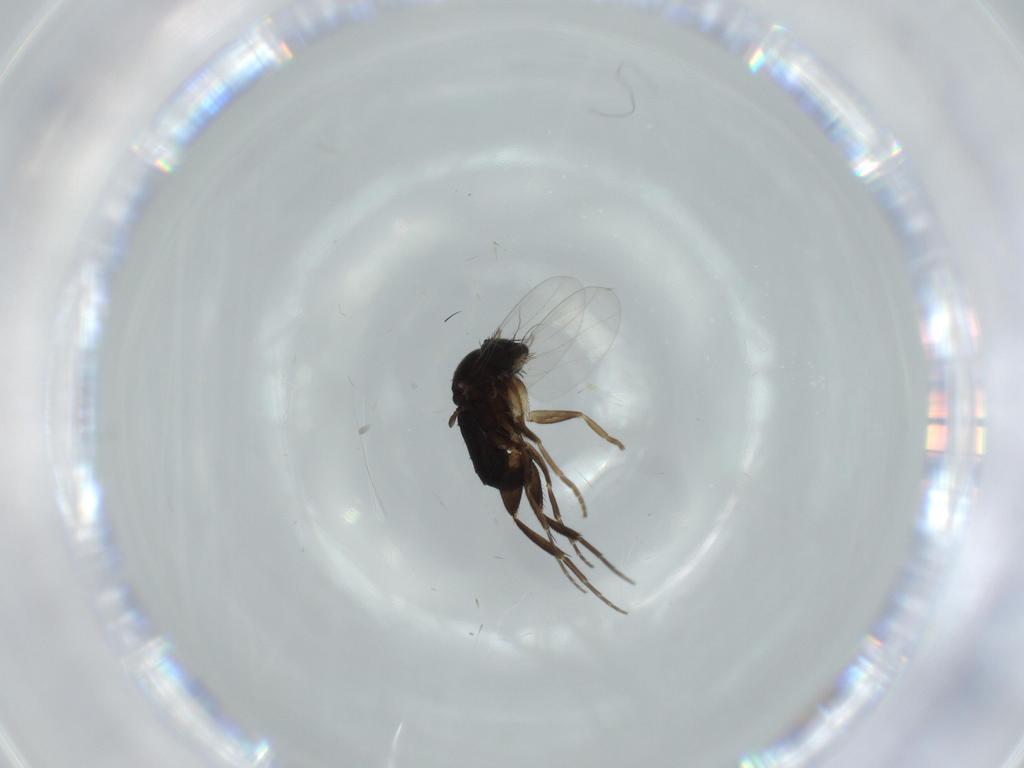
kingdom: Animalia
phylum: Arthropoda
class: Insecta
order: Diptera
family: Phoridae
